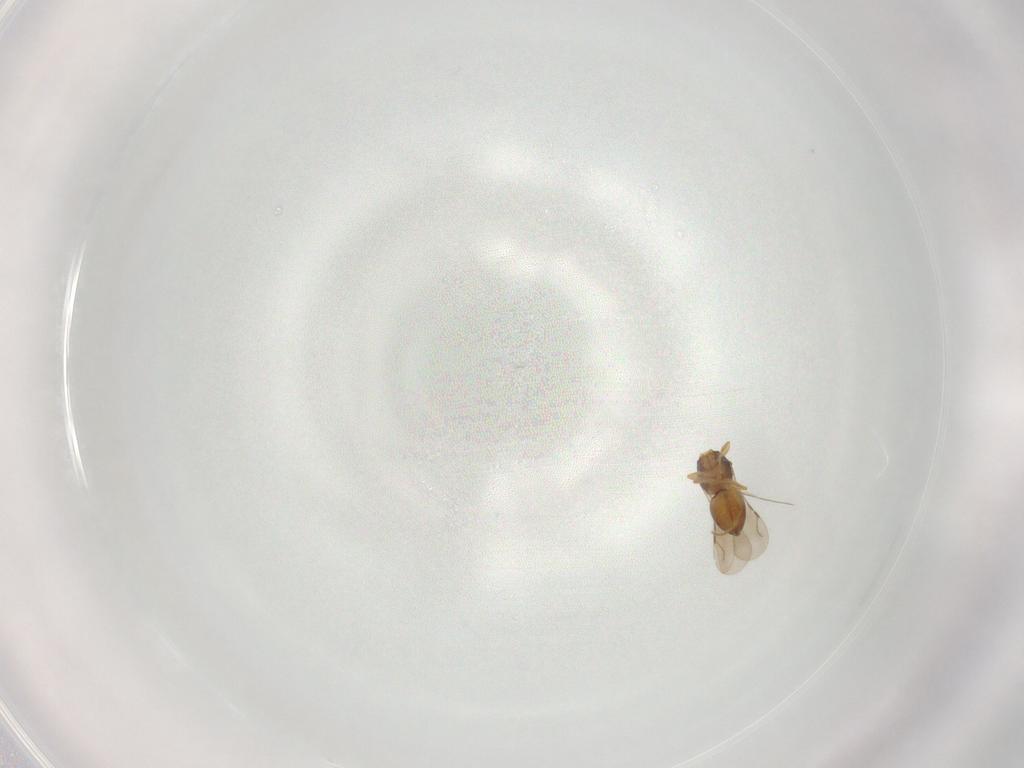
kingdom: Animalia
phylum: Arthropoda
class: Insecta
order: Hymenoptera
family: Ceraphronidae
